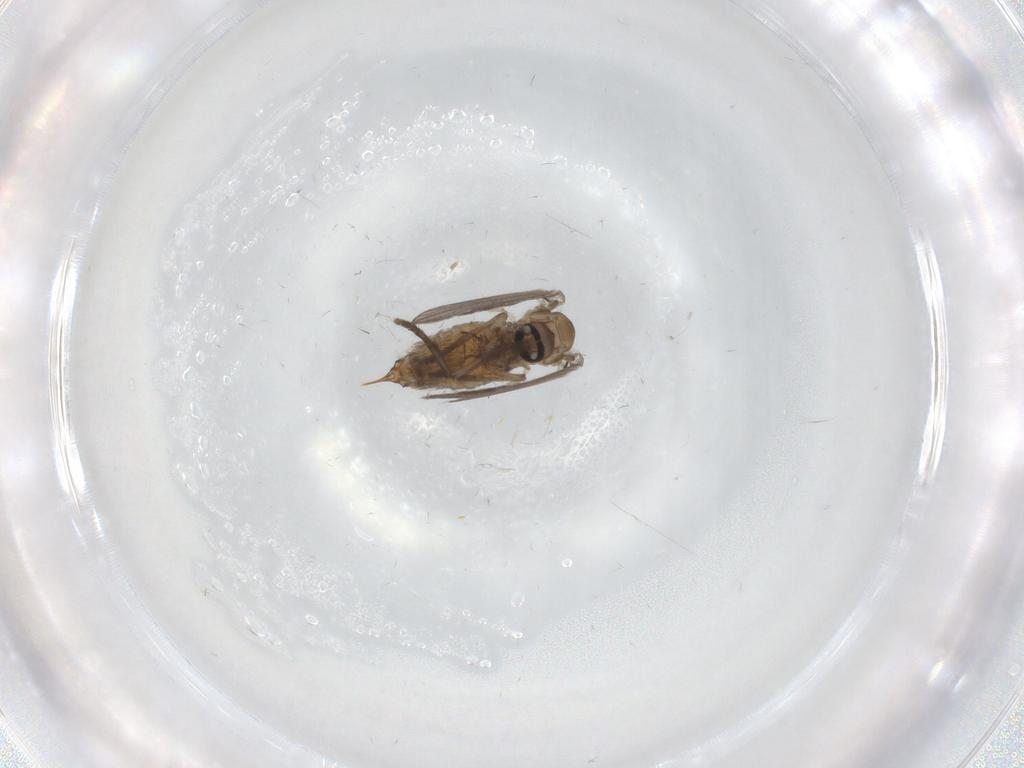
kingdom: Animalia
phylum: Arthropoda
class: Insecta
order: Diptera
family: Psychodidae
